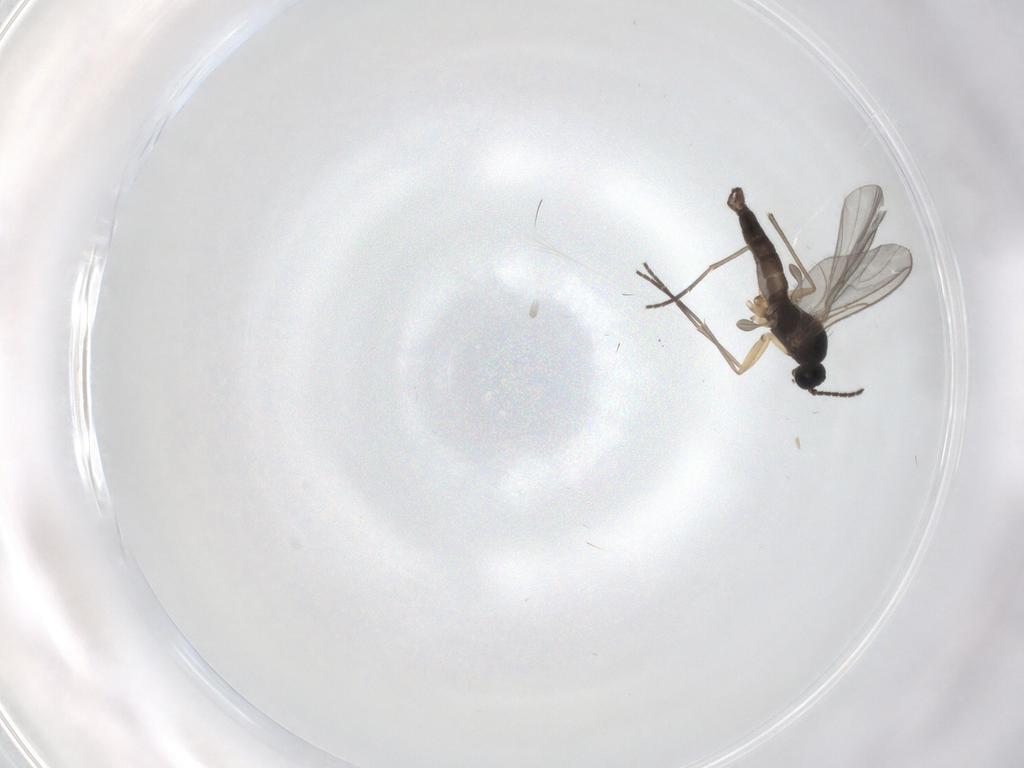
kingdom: Animalia
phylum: Arthropoda
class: Insecta
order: Diptera
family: Sciaridae
